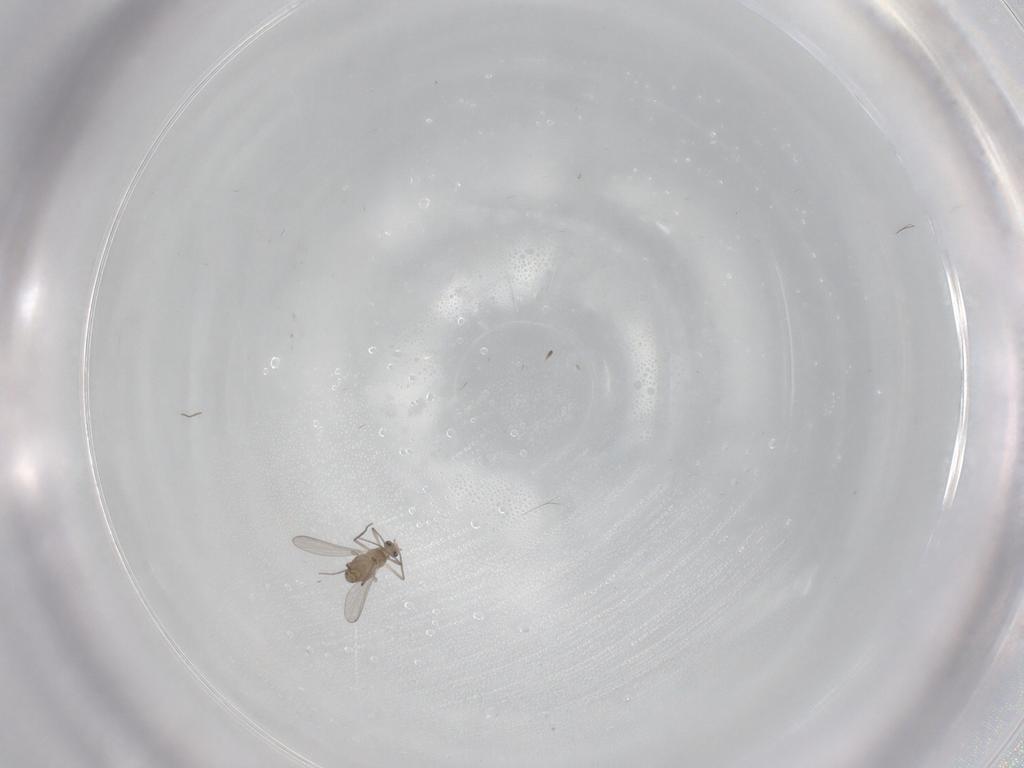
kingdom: Animalia
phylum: Arthropoda
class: Insecta
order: Diptera
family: Chironomidae
